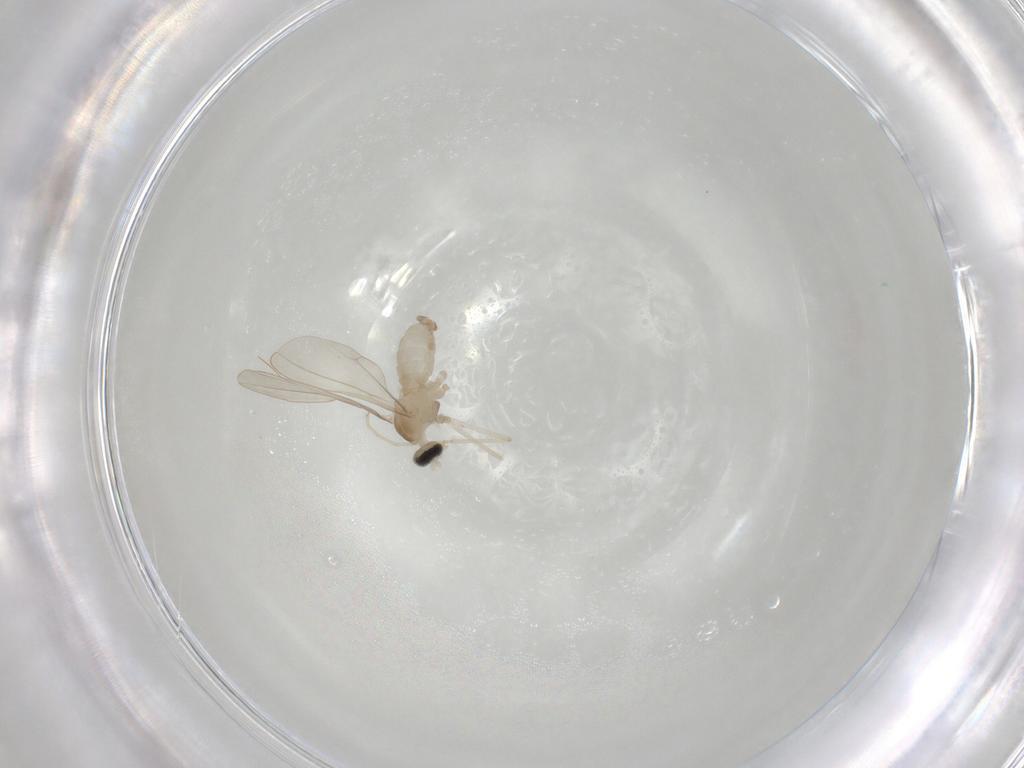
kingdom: Animalia
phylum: Arthropoda
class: Insecta
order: Diptera
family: Cecidomyiidae
